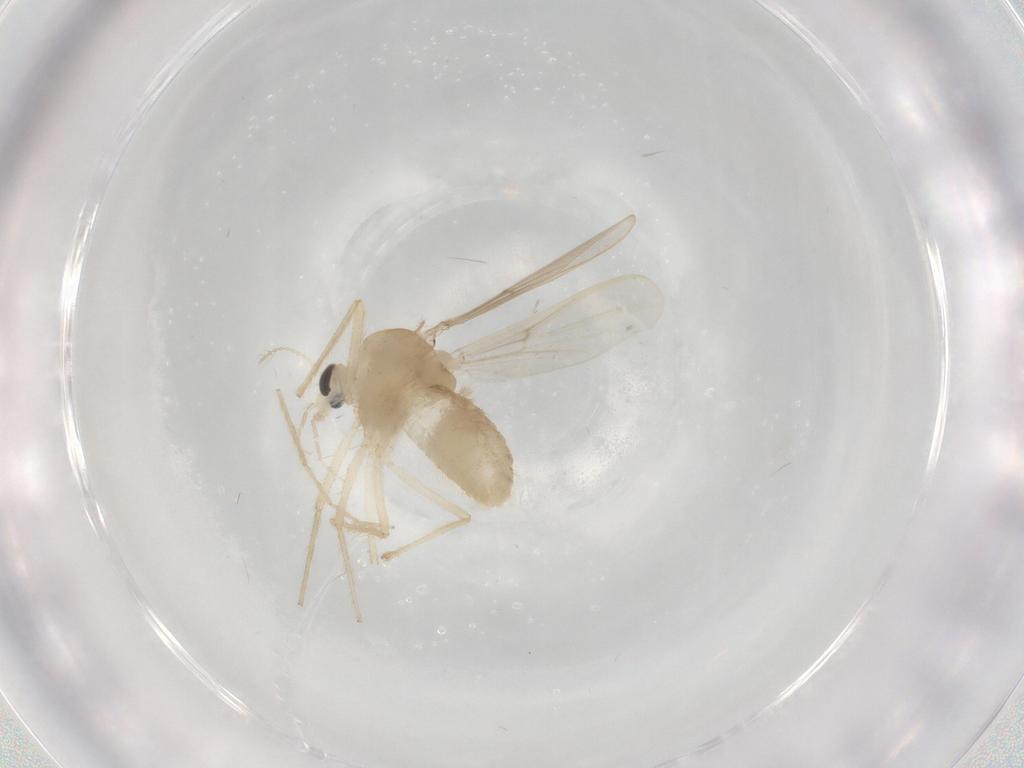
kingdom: Animalia
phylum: Arthropoda
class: Insecta
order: Diptera
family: Chironomidae
